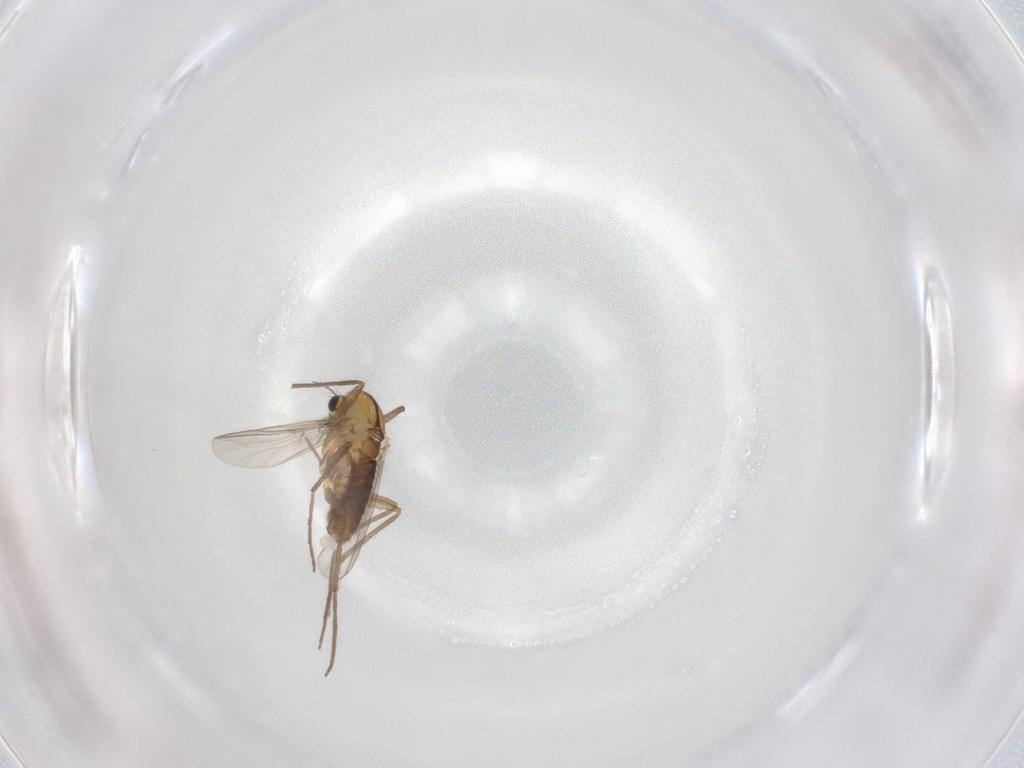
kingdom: Animalia
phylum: Arthropoda
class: Insecta
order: Diptera
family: Chironomidae
